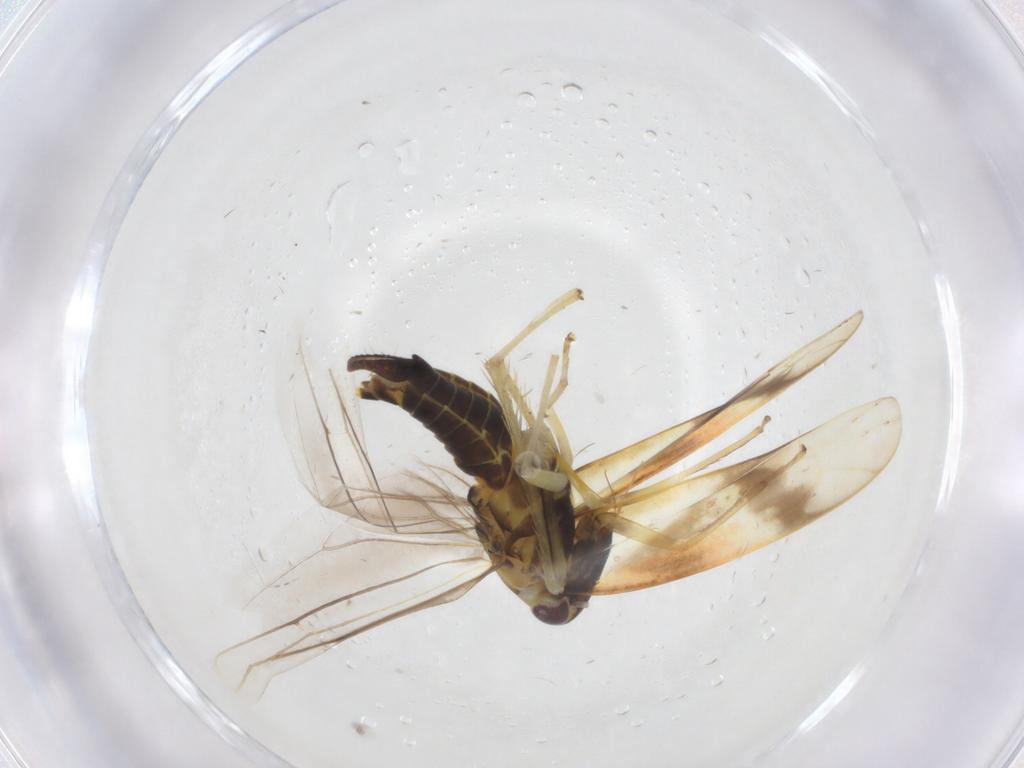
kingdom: Animalia
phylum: Arthropoda
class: Insecta
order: Hemiptera
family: Cicadellidae
